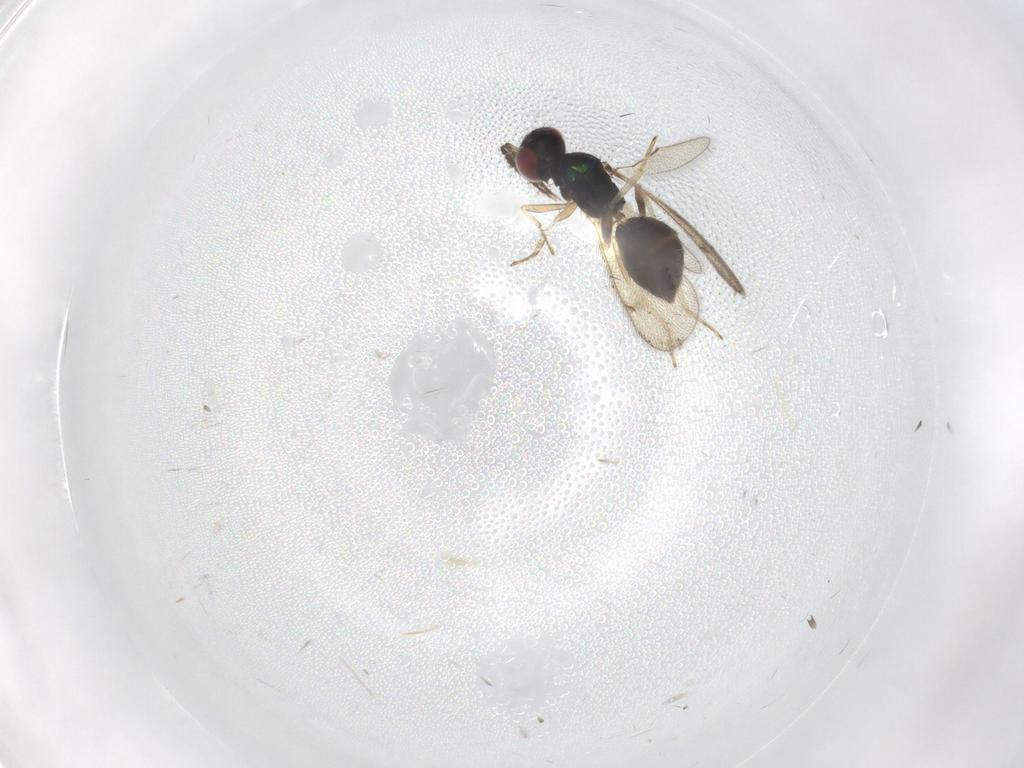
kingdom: Animalia
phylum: Arthropoda
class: Insecta
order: Hymenoptera
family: Eulophidae
